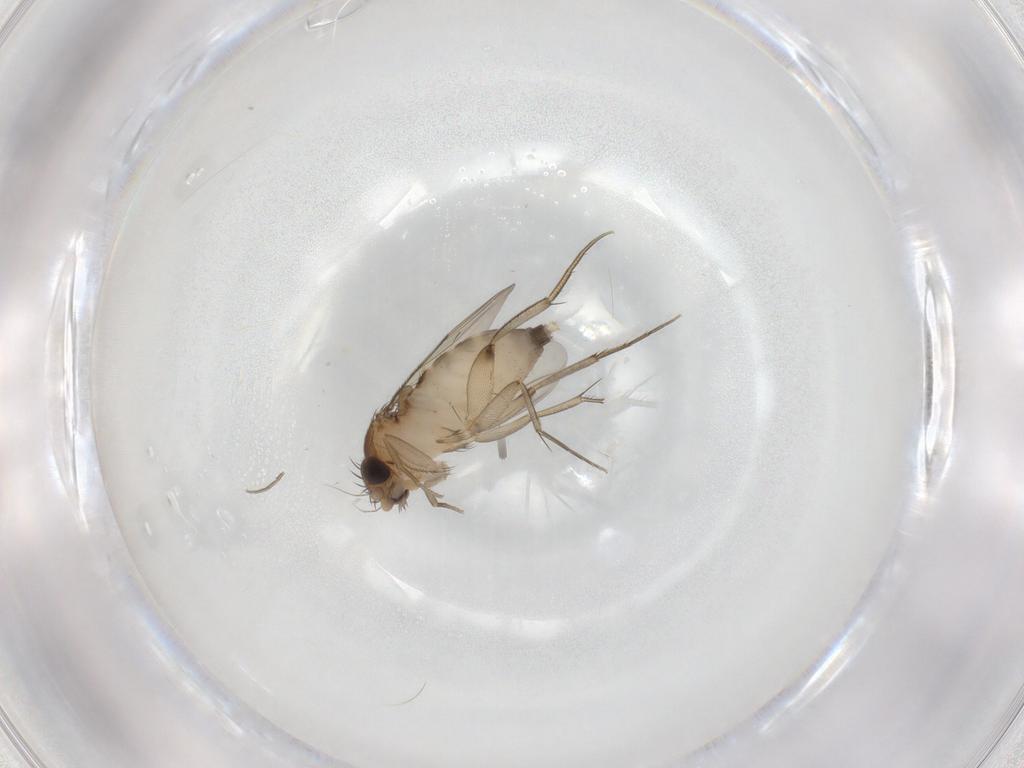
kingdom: Animalia
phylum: Arthropoda
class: Insecta
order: Diptera
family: Phoridae
